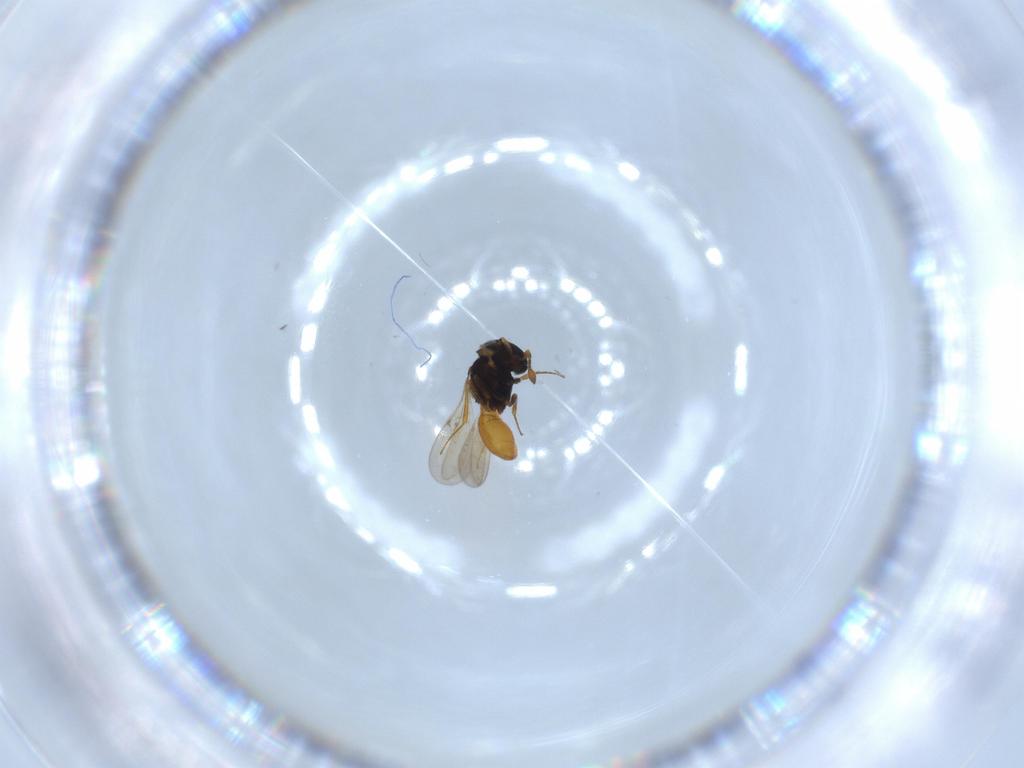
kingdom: Animalia
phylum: Arthropoda
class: Insecta
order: Hymenoptera
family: Scelionidae
